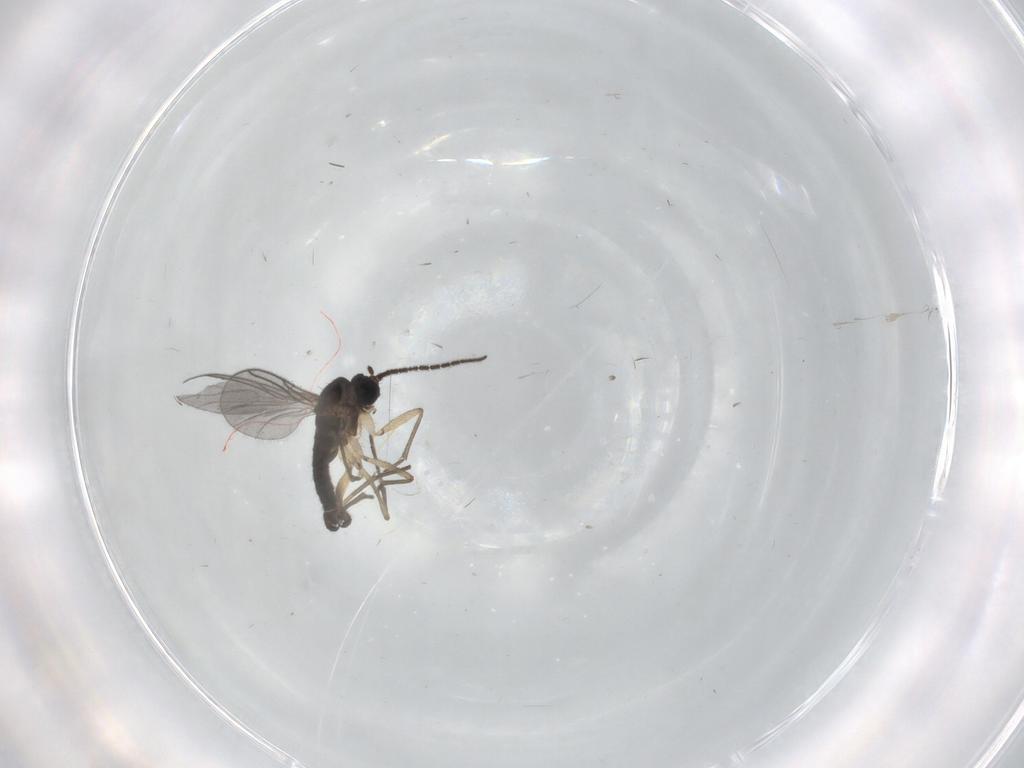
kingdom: Animalia
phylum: Arthropoda
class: Insecta
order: Diptera
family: Sciaridae
